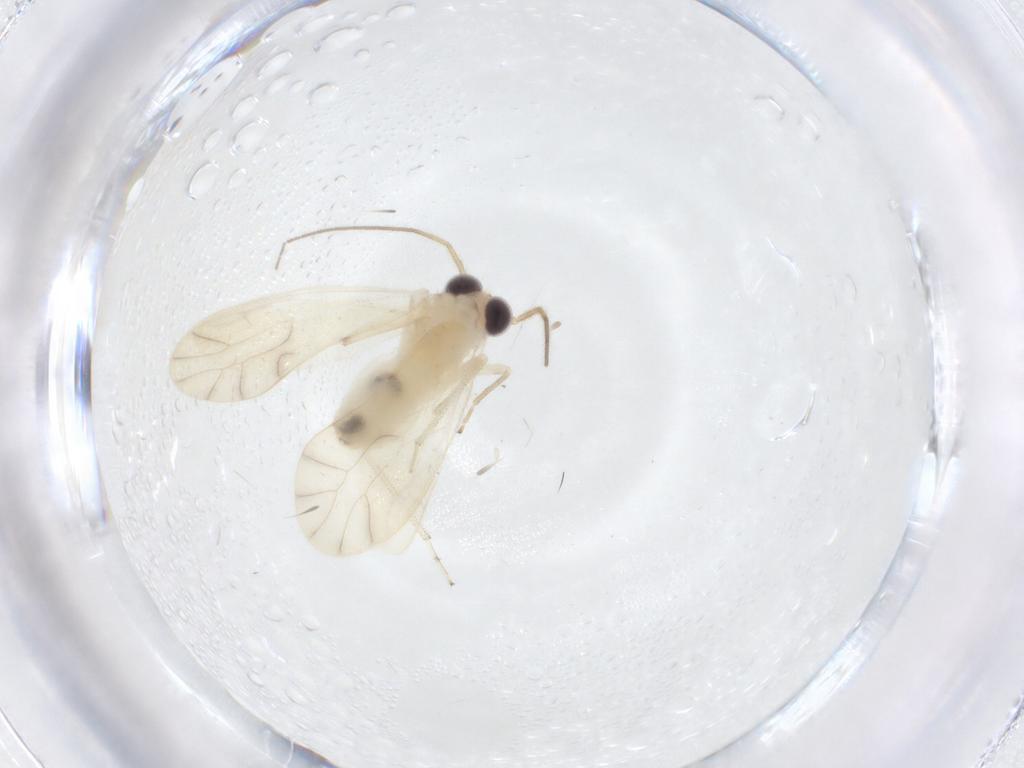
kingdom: Animalia
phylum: Arthropoda
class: Insecta
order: Psocodea
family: Caeciliusidae
